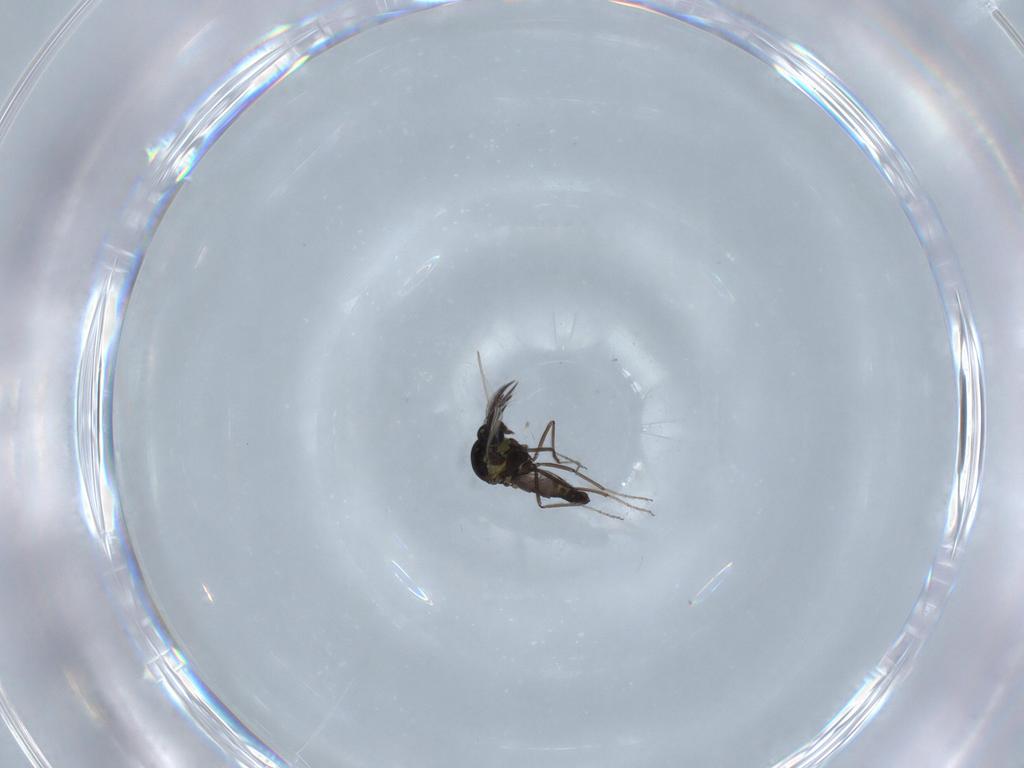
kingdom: Animalia
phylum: Arthropoda
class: Insecta
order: Diptera
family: Ceratopogonidae
